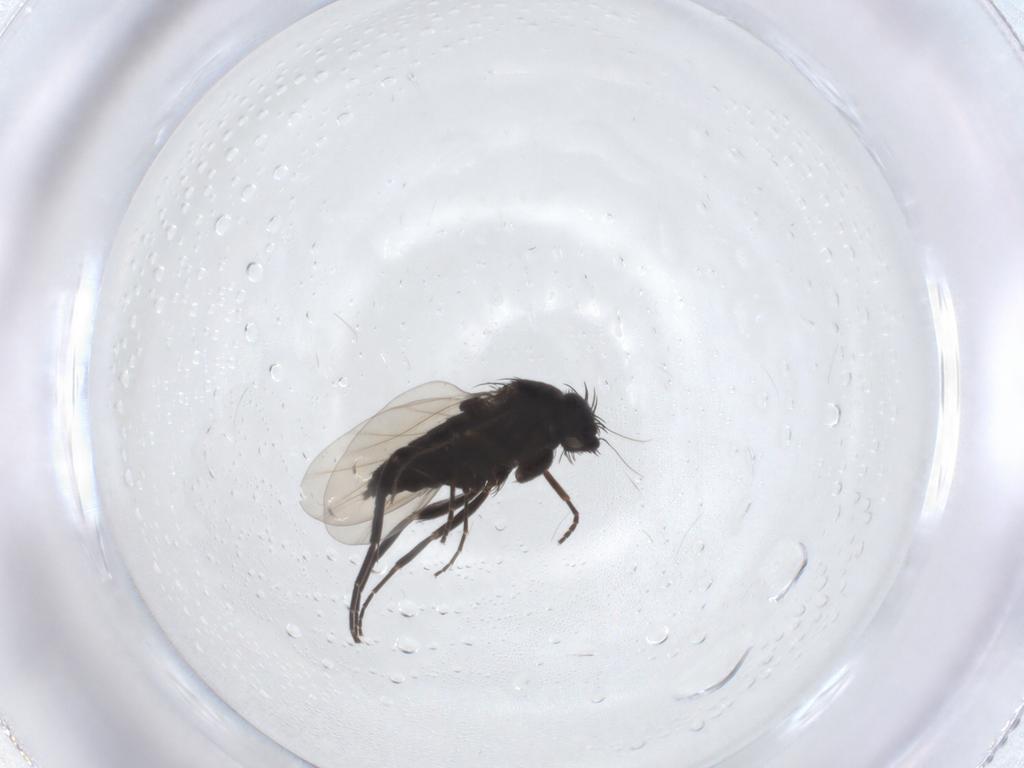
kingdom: Animalia
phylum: Arthropoda
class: Insecta
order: Diptera
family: Phoridae
